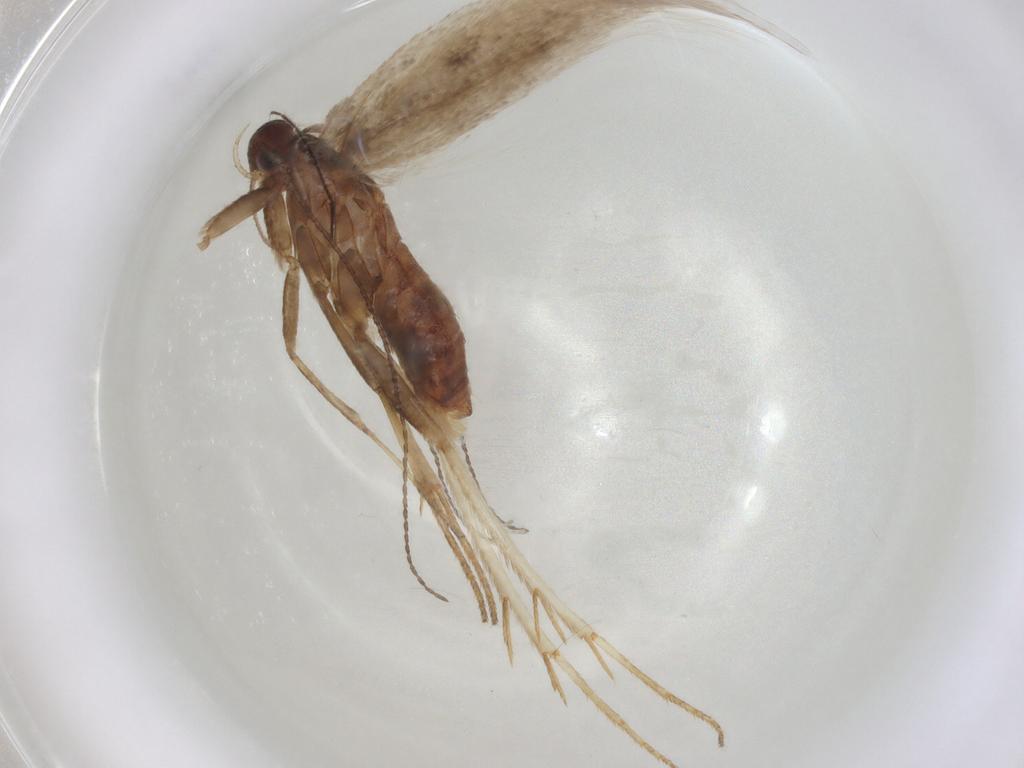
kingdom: Animalia
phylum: Arthropoda
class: Insecta
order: Lepidoptera
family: Erebidae
